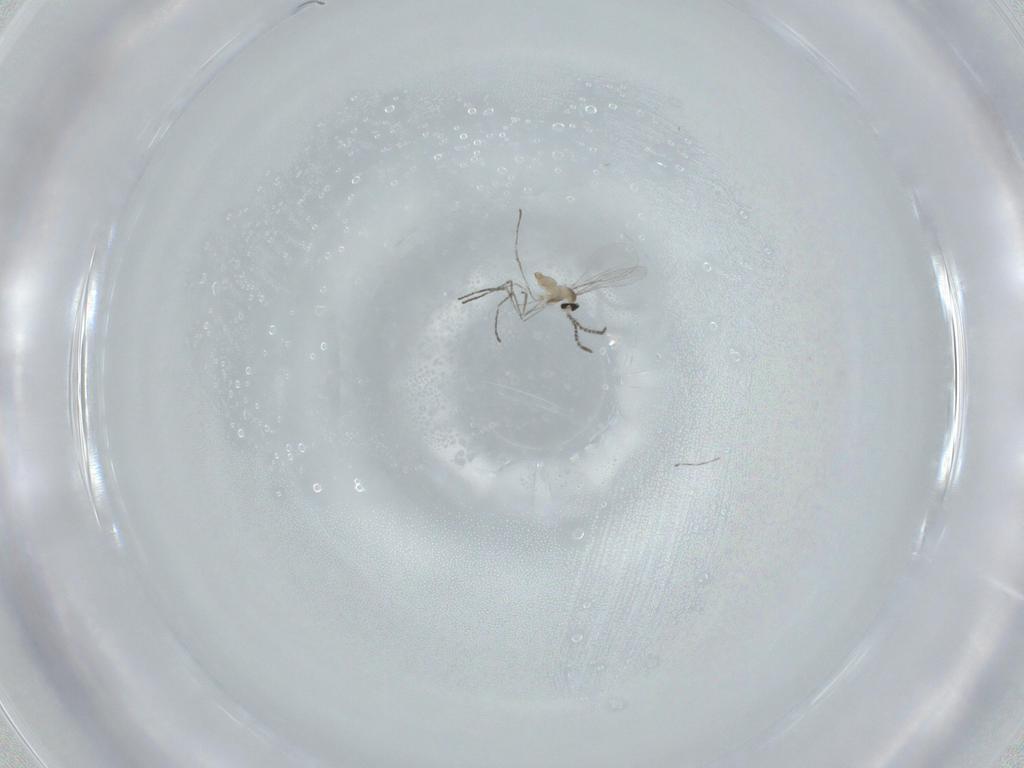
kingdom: Animalia
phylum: Arthropoda
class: Insecta
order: Diptera
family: Cecidomyiidae
